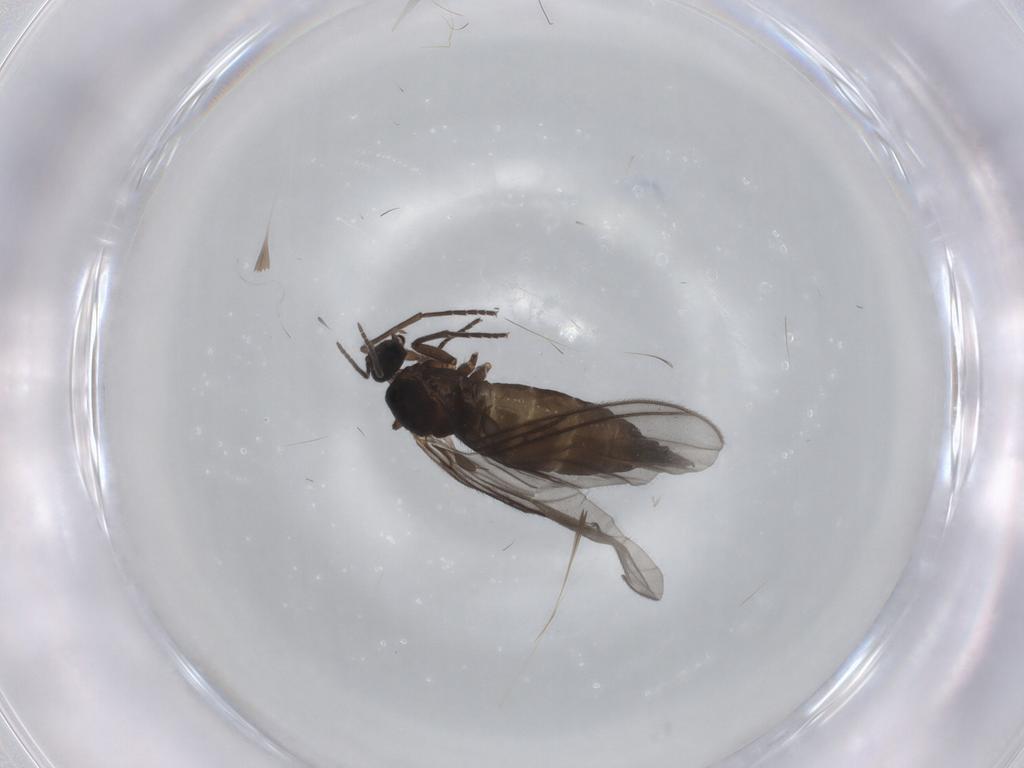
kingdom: Animalia
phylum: Arthropoda
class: Insecta
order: Diptera
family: Sciaridae
